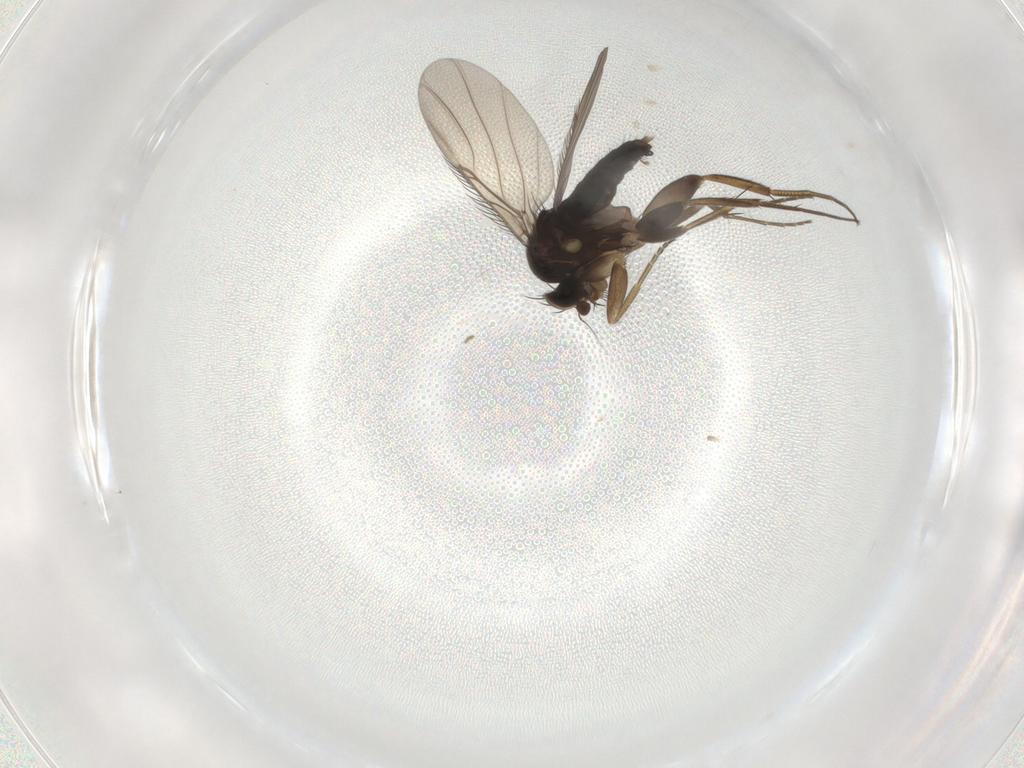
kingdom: Animalia
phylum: Arthropoda
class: Insecta
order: Diptera
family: Phoridae
